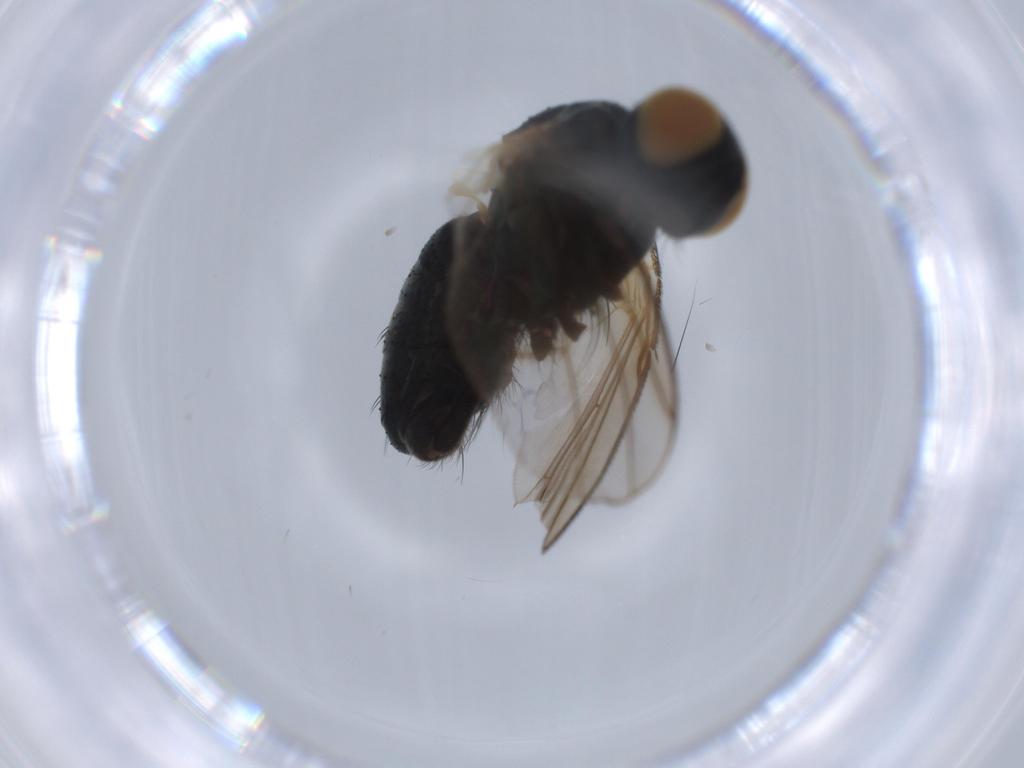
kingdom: Animalia
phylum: Arthropoda
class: Insecta
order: Diptera
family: Muscidae
